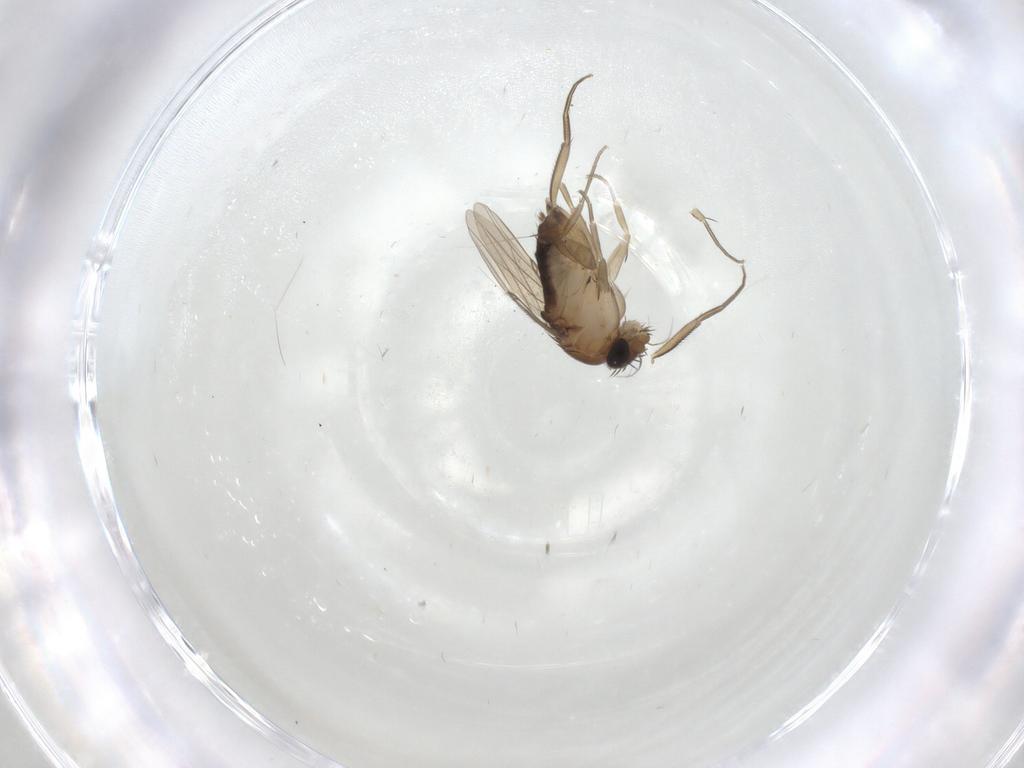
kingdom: Animalia
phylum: Arthropoda
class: Insecta
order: Diptera
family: Phoridae
